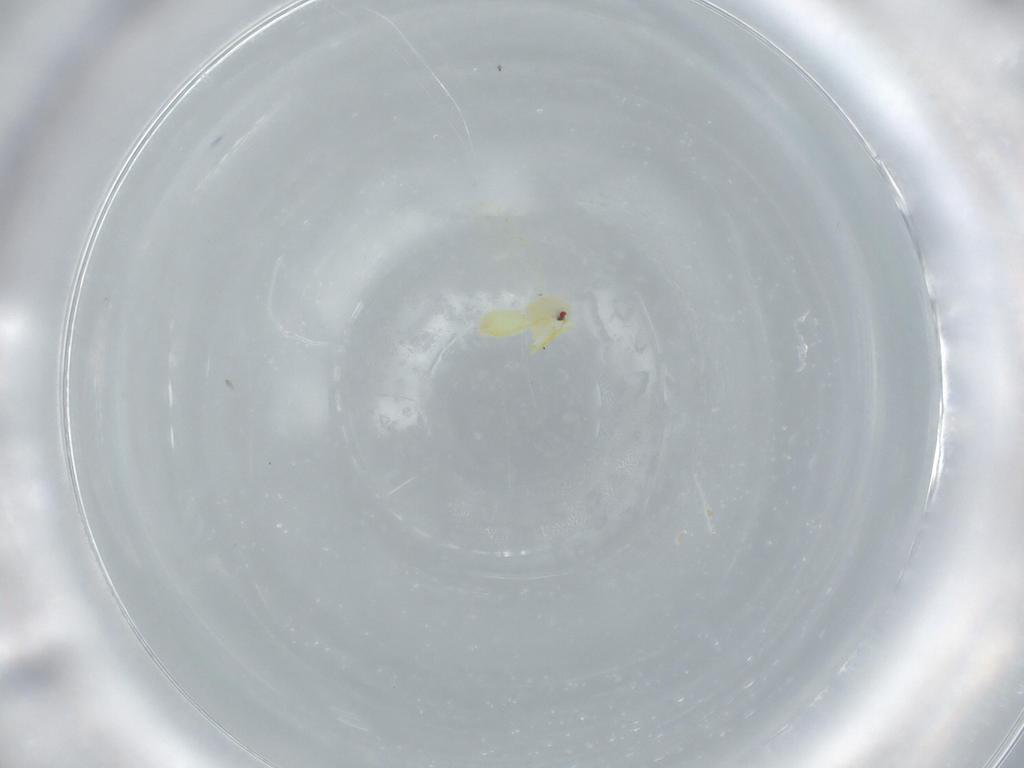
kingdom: Animalia
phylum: Arthropoda
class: Insecta
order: Hemiptera
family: Aleyrodidae
